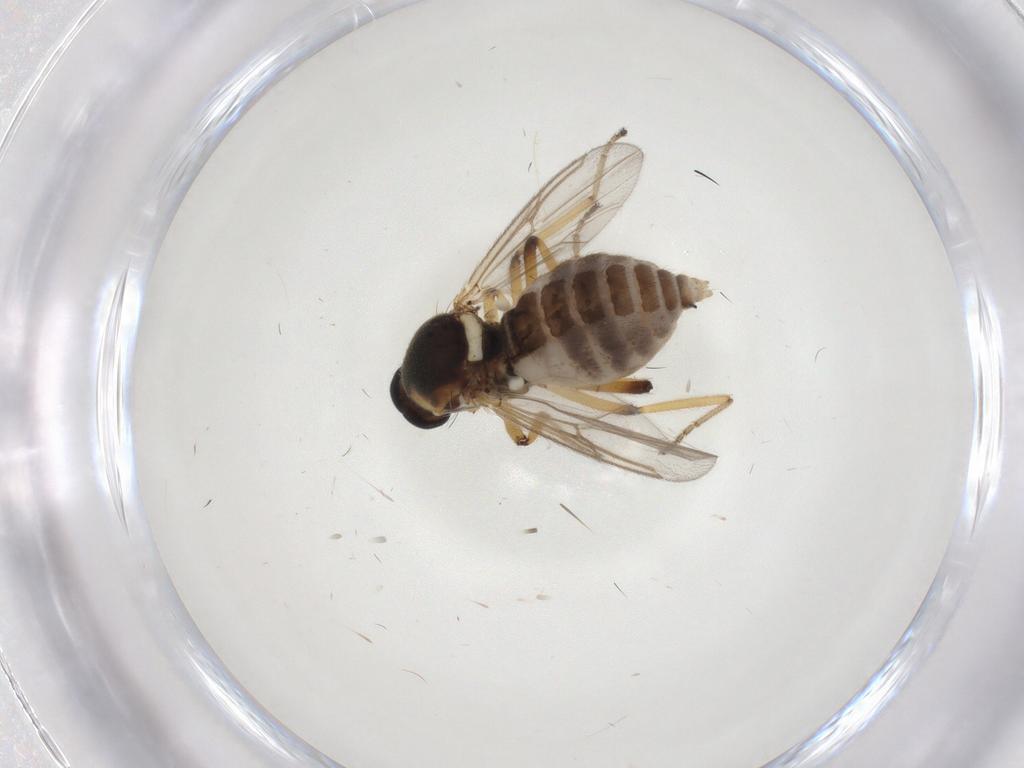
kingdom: Animalia
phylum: Arthropoda
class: Insecta
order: Diptera
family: Ceratopogonidae
